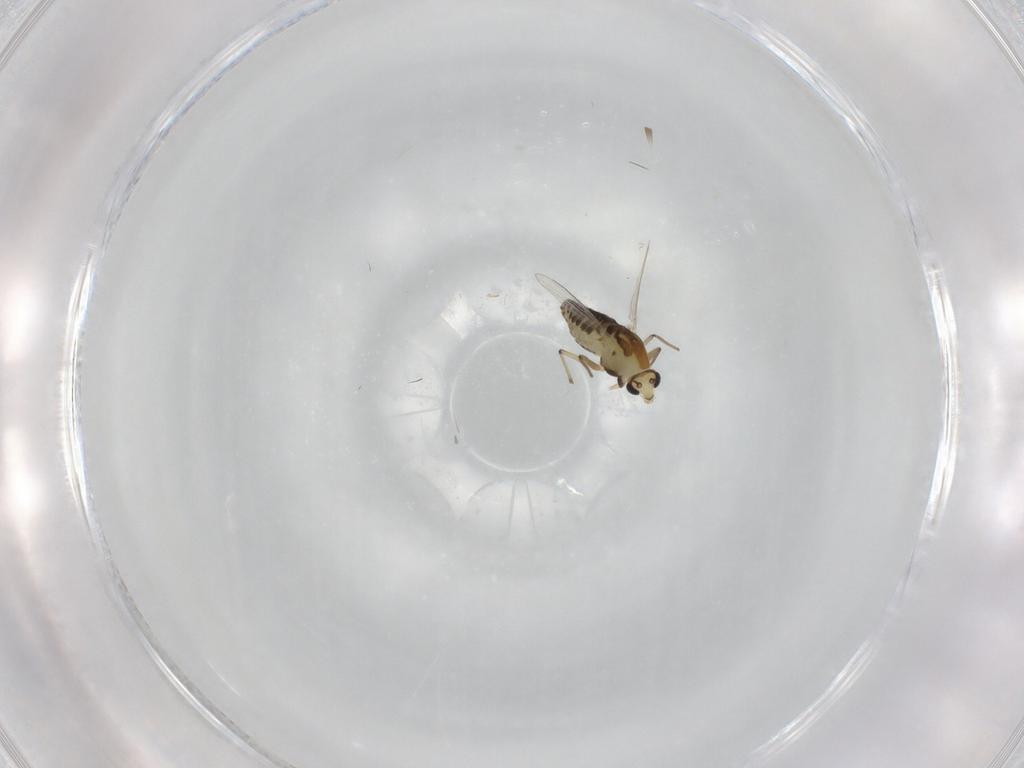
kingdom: Animalia
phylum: Arthropoda
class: Insecta
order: Diptera
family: Chironomidae
